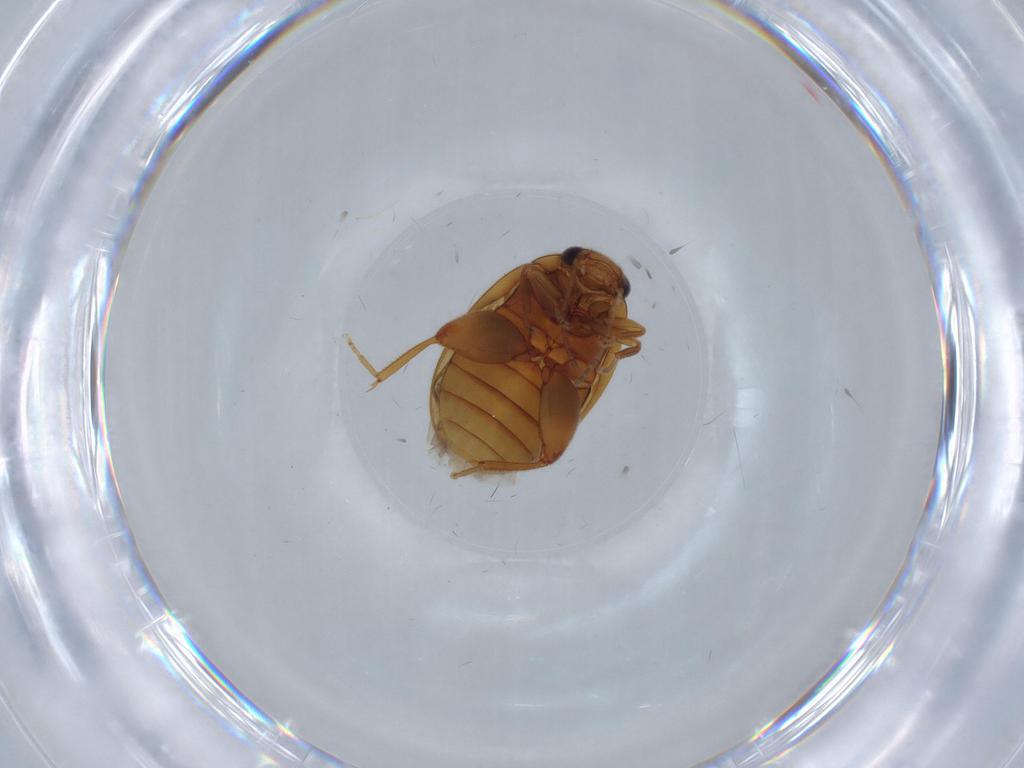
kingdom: Animalia
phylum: Arthropoda
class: Insecta
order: Coleoptera
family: Scirtidae
